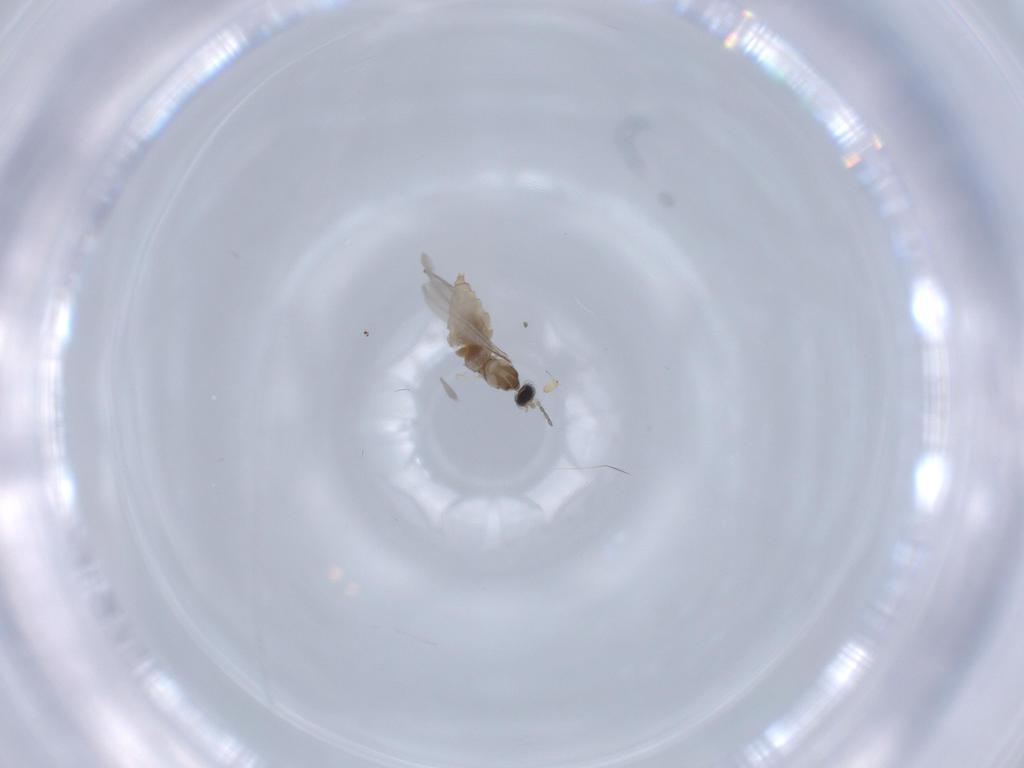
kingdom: Animalia
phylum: Arthropoda
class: Insecta
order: Diptera
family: Cecidomyiidae
